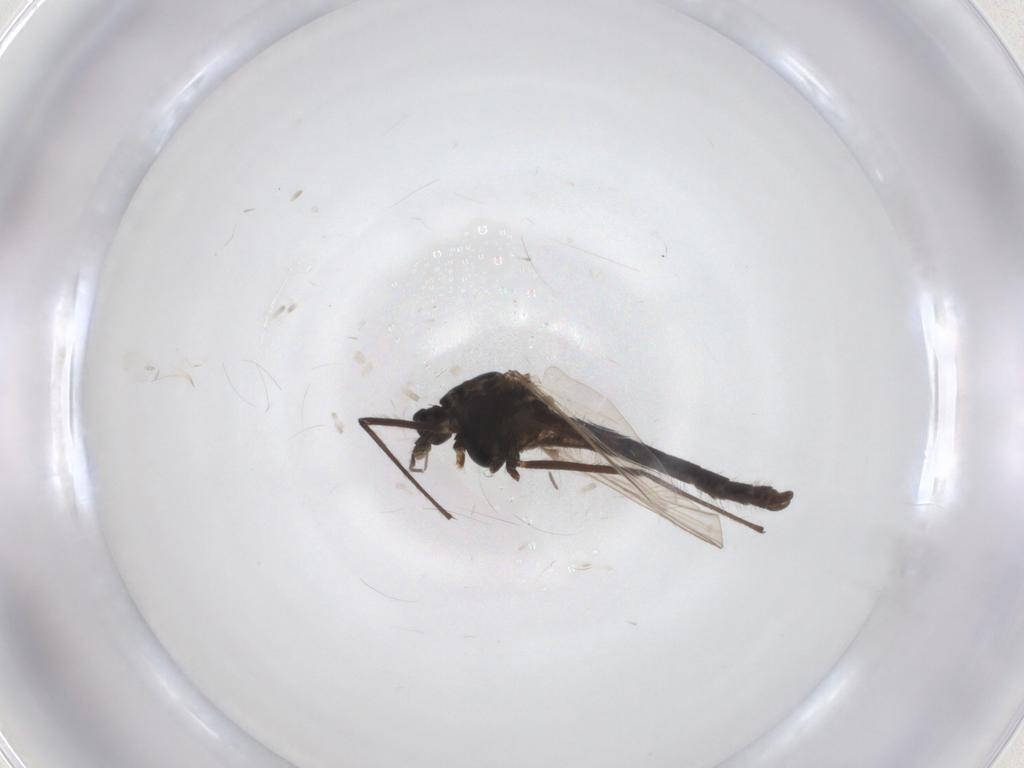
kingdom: Animalia
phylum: Arthropoda
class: Insecta
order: Diptera
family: Chironomidae
